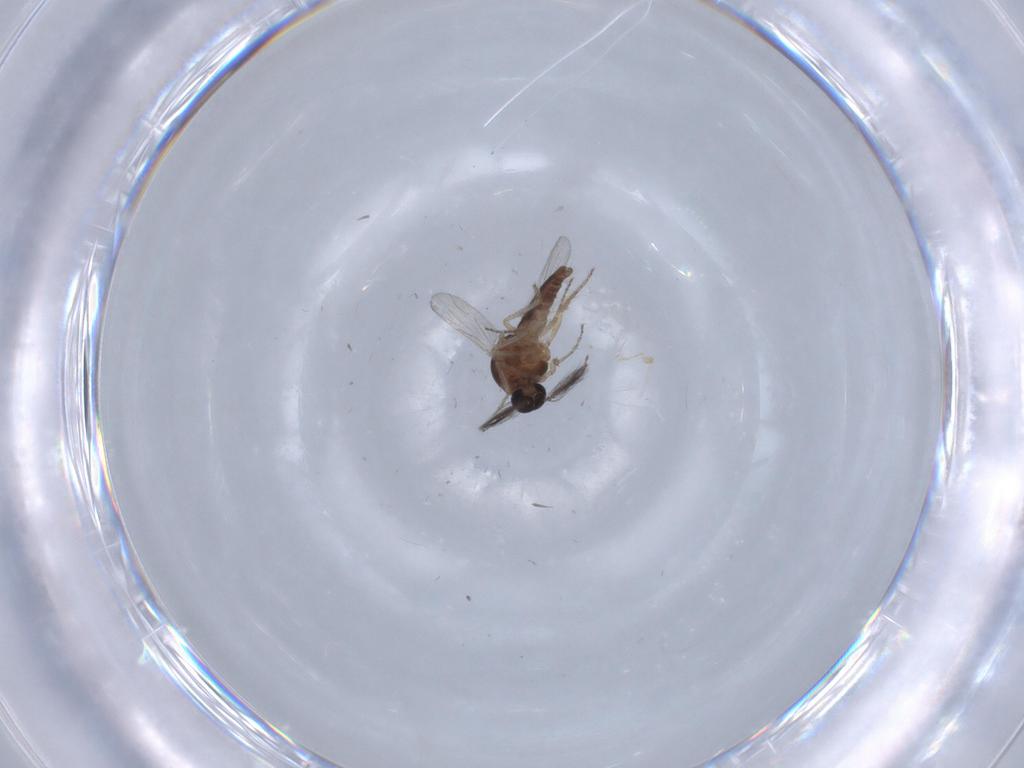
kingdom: Animalia
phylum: Arthropoda
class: Insecta
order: Diptera
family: Ceratopogonidae
